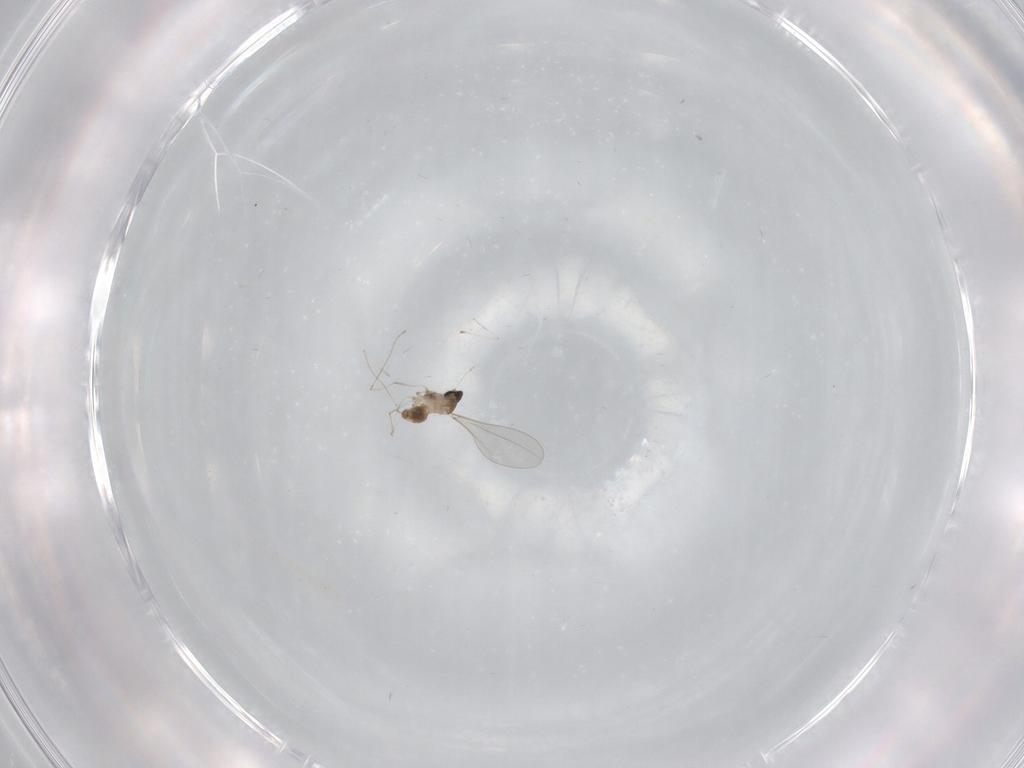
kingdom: Animalia
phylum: Arthropoda
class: Insecta
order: Diptera
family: Cecidomyiidae
